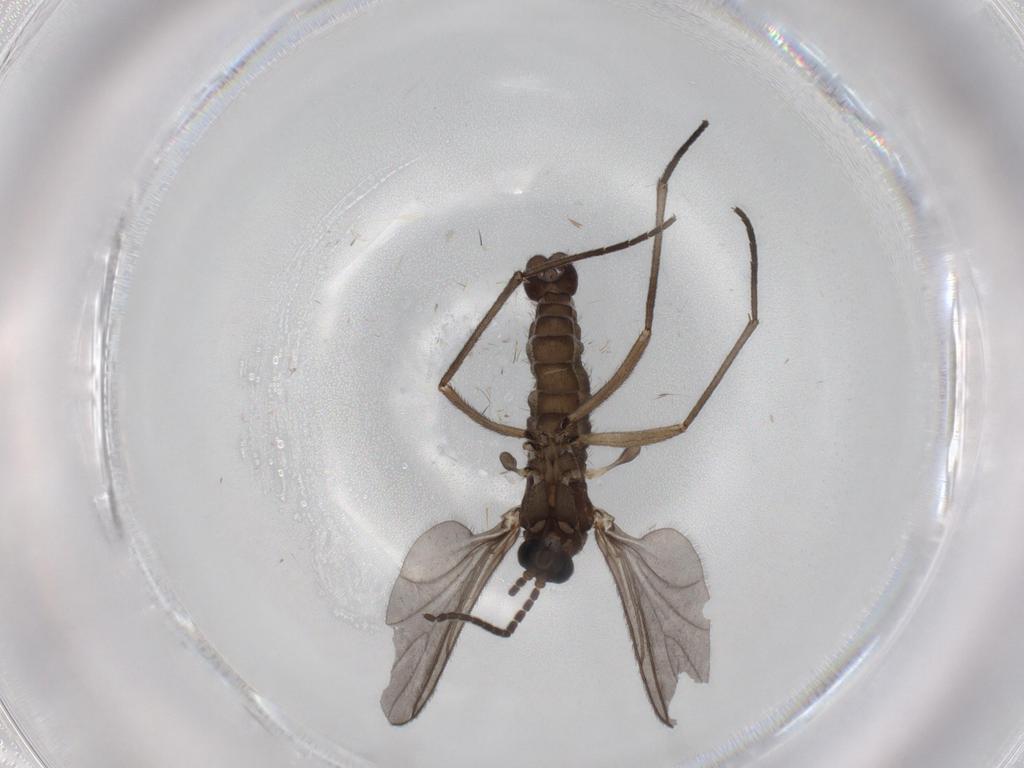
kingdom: Animalia
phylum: Arthropoda
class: Insecta
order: Diptera
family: Sciaridae
